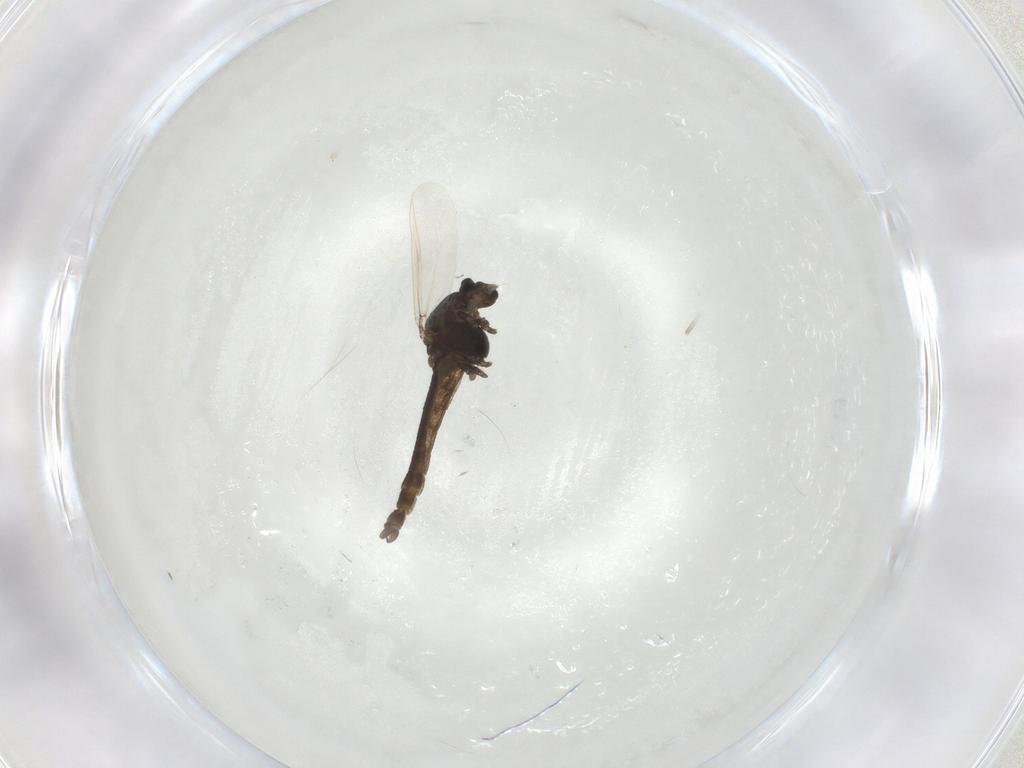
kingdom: Animalia
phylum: Arthropoda
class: Insecta
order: Diptera
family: Chironomidae
